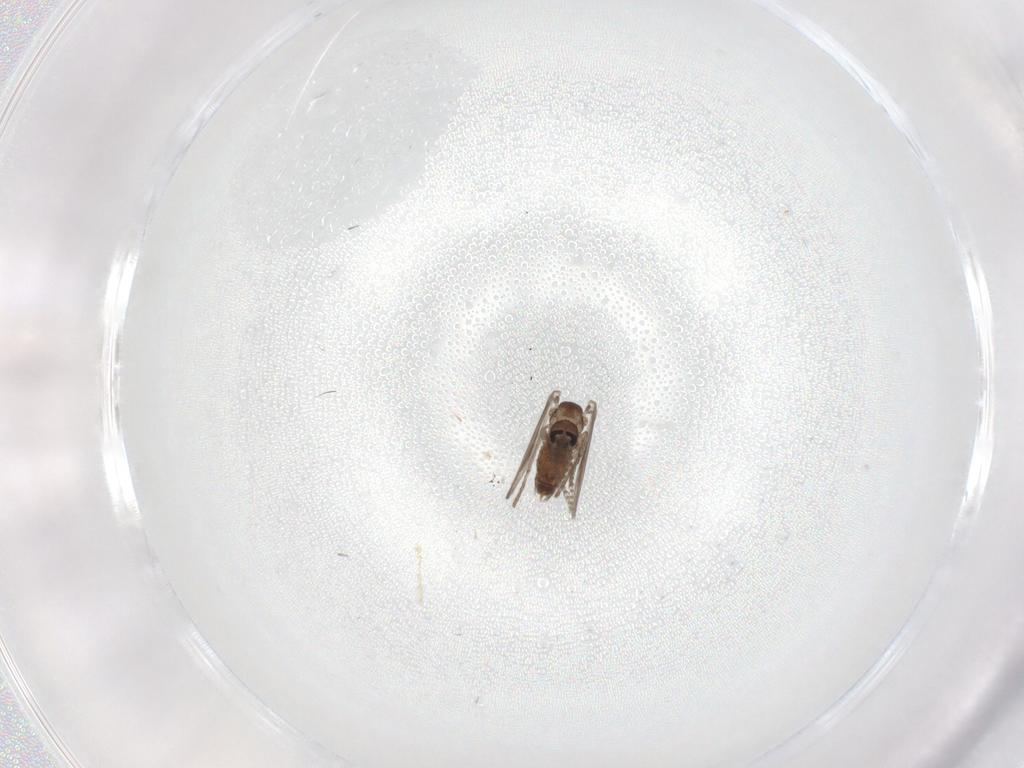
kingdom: Animalia
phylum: Arthropoda
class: Insecta
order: Diptera
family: Psychodidae
